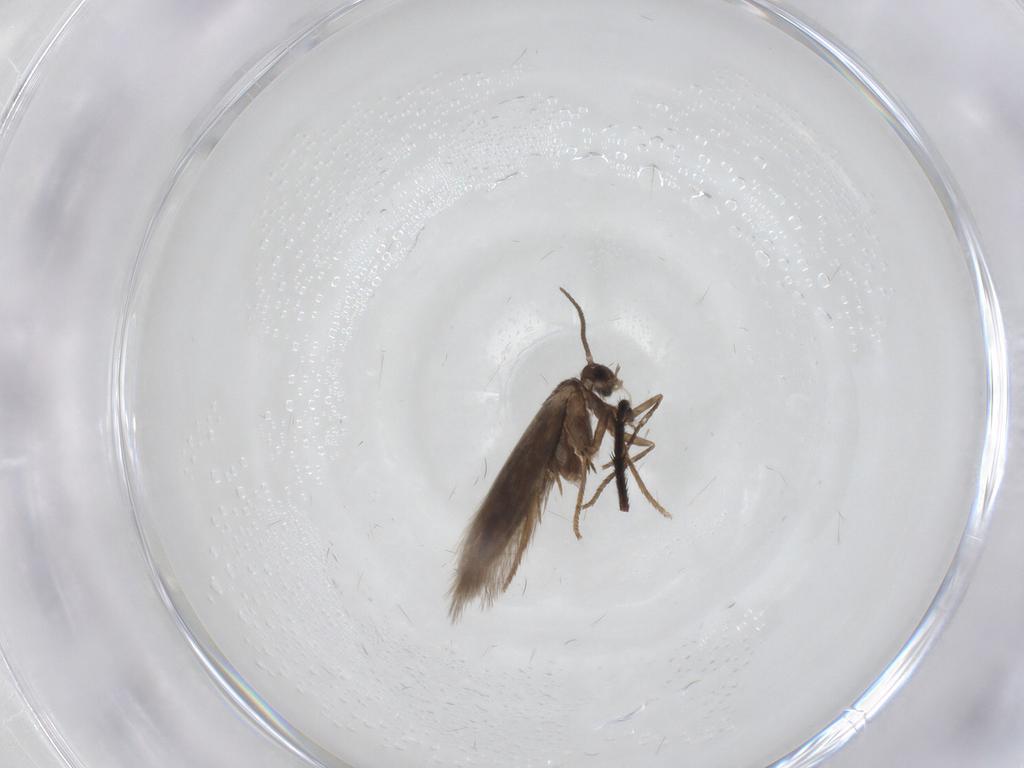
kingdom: Animalia
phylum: Arthropoda
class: Insecta
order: Lepidoptera
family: Heliozelidae
